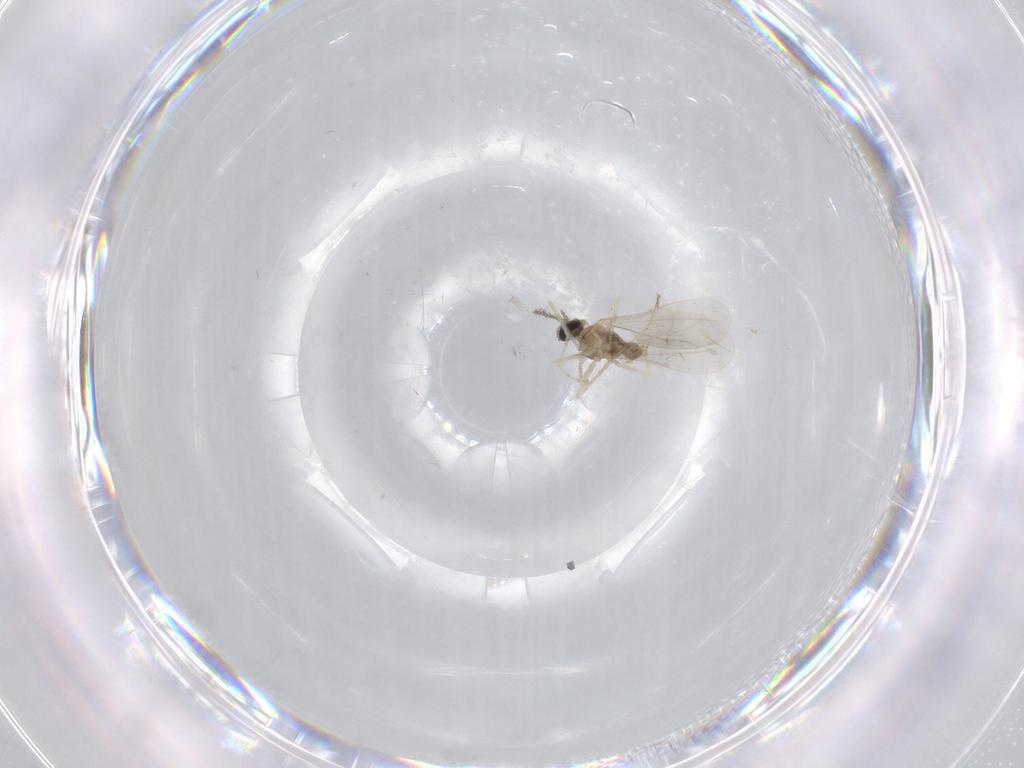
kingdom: Animalia
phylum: Arthropoda
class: Insecta
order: Diptera
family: Cecidomyiidae
